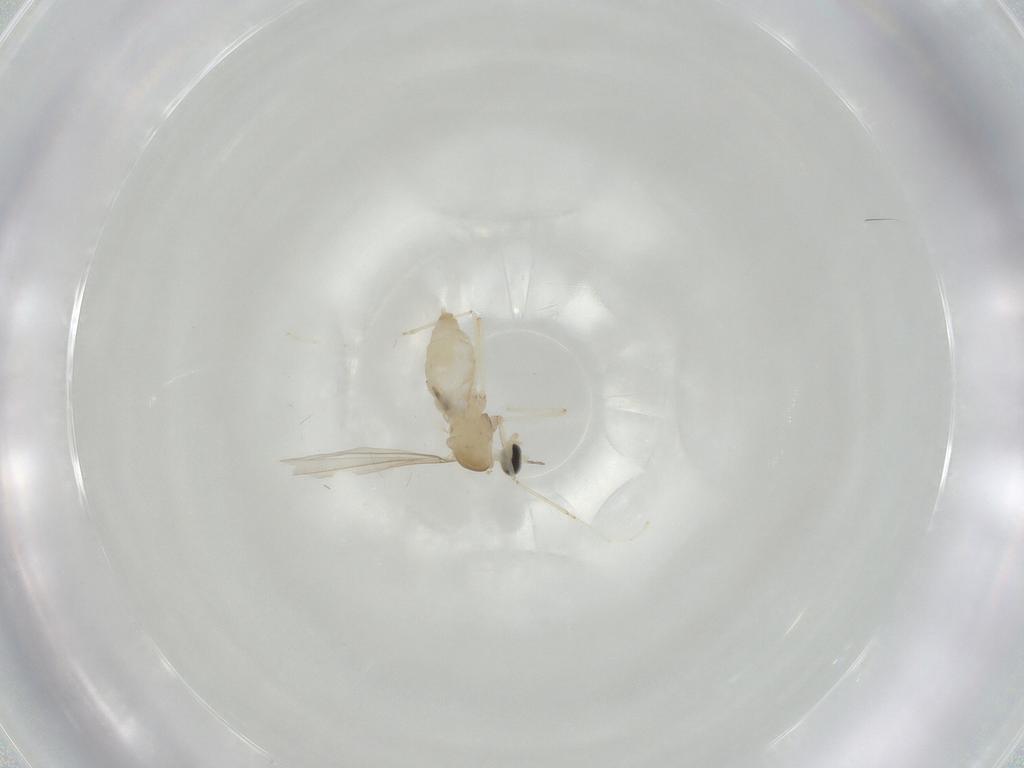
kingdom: Animalia
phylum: Arthropoda
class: Insecta
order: Diptera
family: Cecidomyiidae
